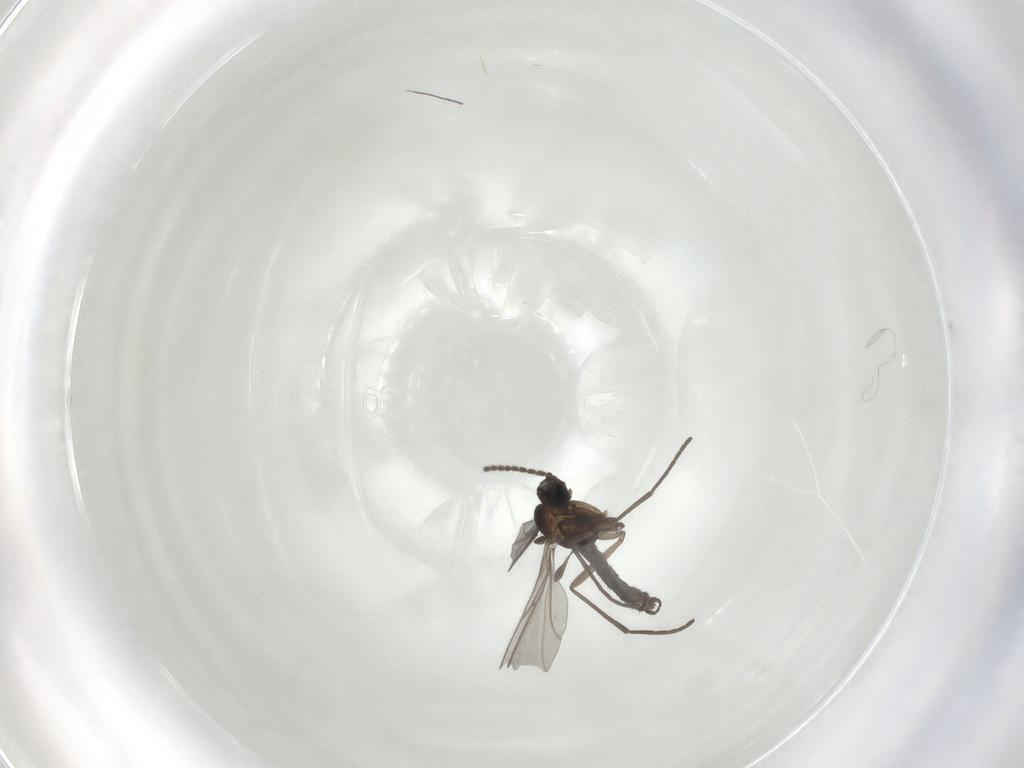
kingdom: Animalia
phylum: Arthropoda
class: Insecta
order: Diptera
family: Sciaridae
